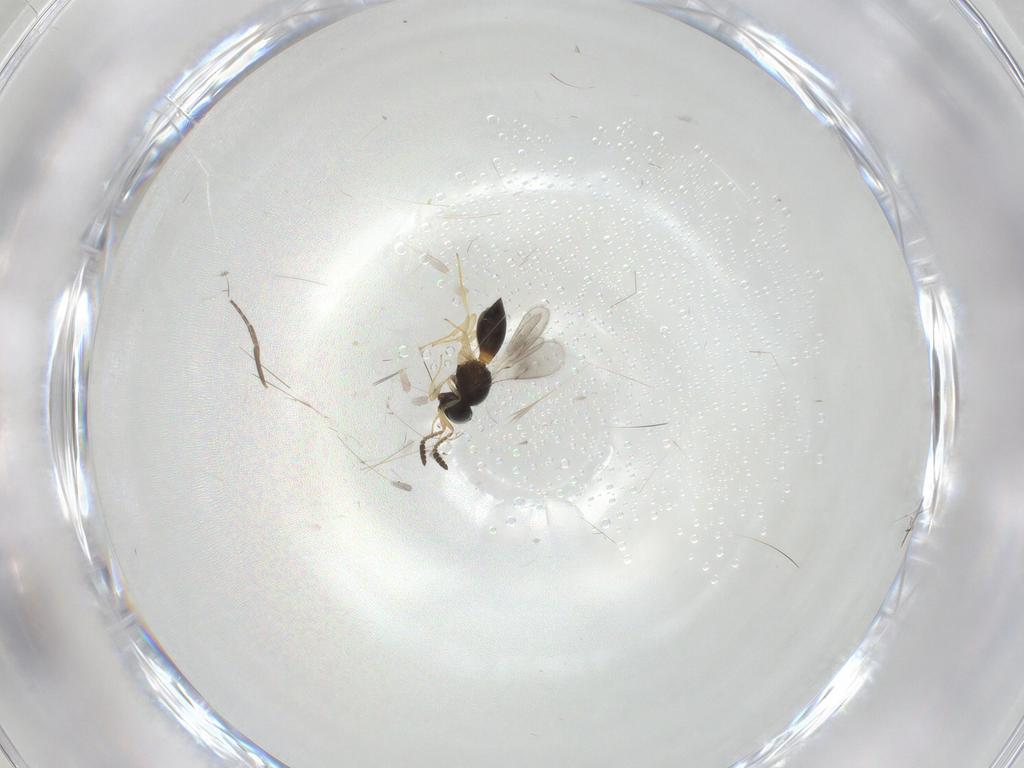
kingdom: Animalia
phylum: Arthropoda
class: Insecta
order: Hymenoptera
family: Scelionidae
